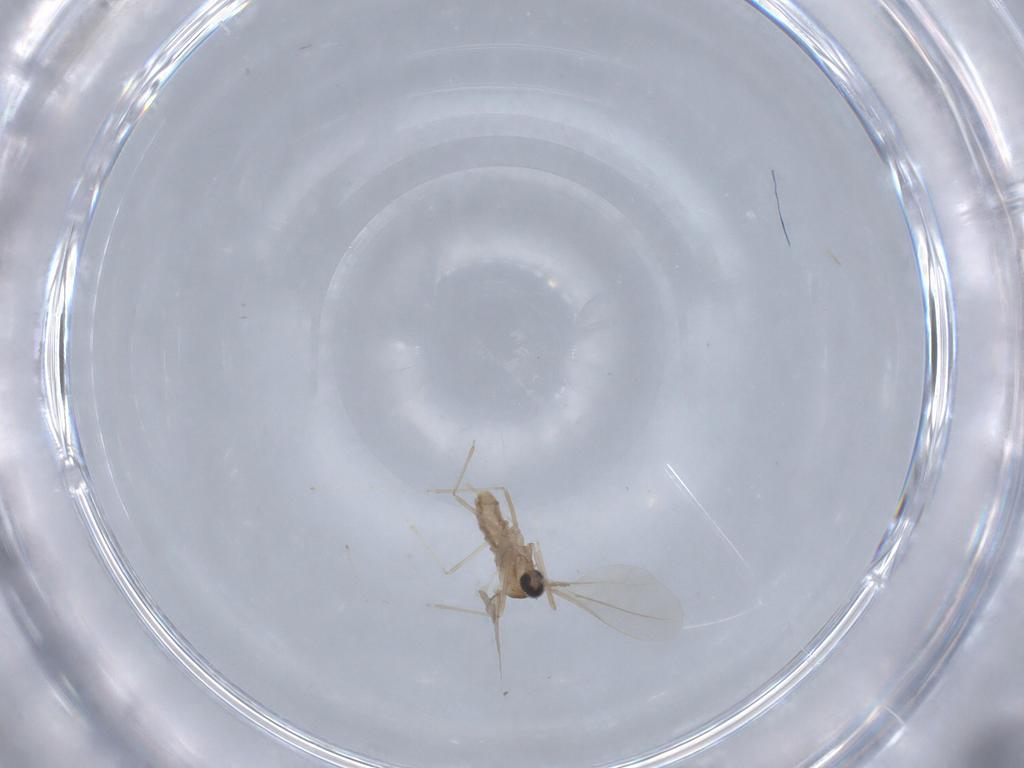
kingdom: Animalia
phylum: Arthropoda
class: Insecta
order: Diptera
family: Cecidomyiidae
